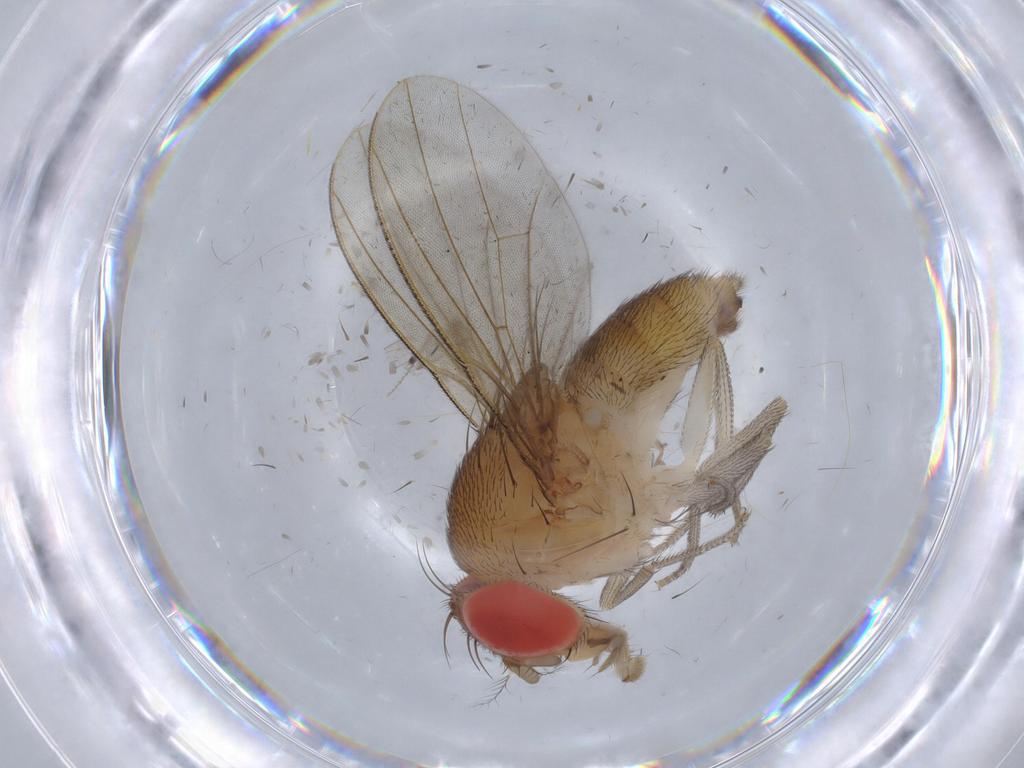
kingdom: Animalia
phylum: Arthropoda
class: Insecta
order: Diptera
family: Drosophilidae
